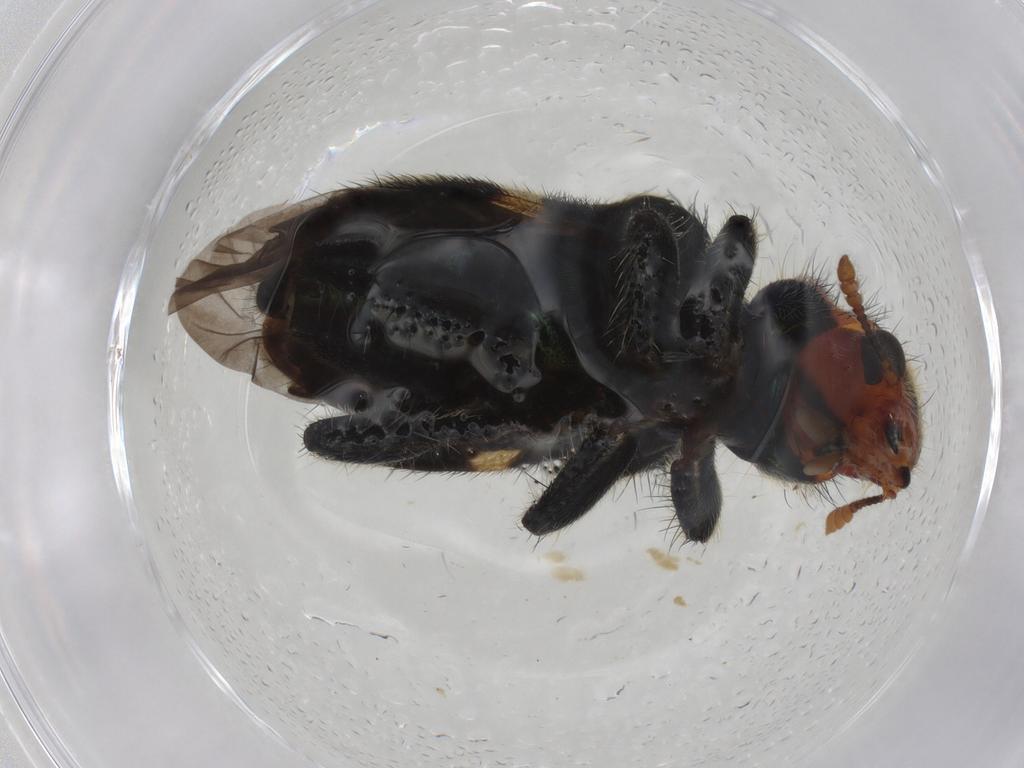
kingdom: Animalia
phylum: Arthropoda
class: Insecta
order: Coleoptera
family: Curculionidae
